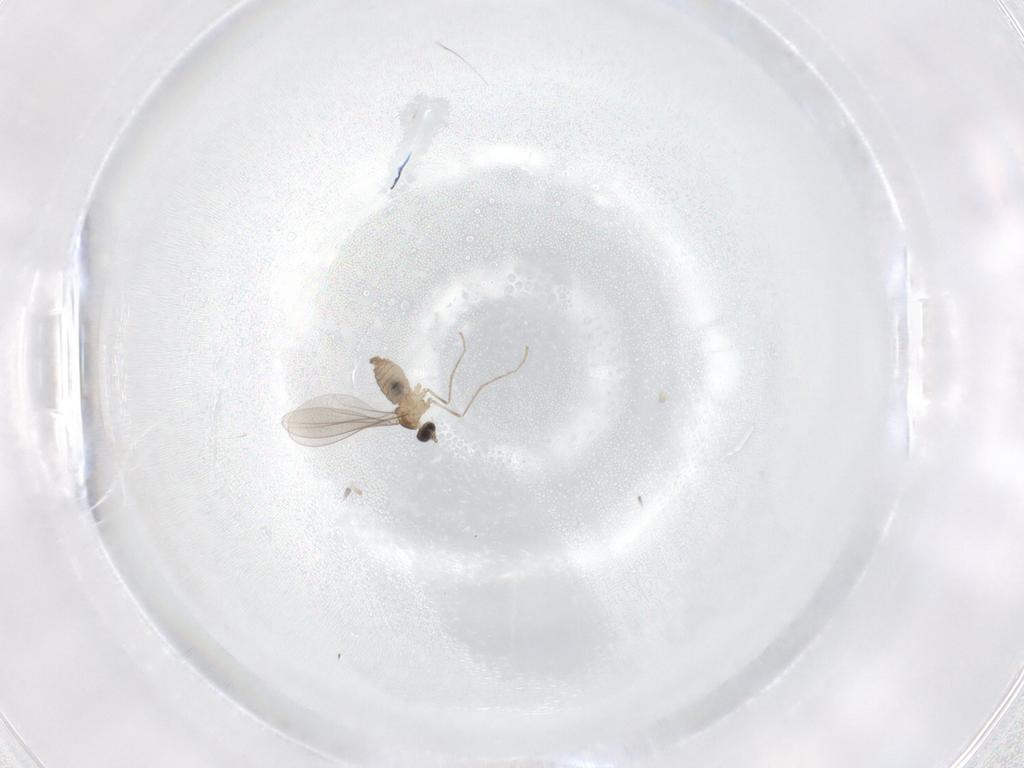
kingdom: Animalia
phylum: Arthropoda
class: Insecta
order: Diptera
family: Cecidomyiidae
